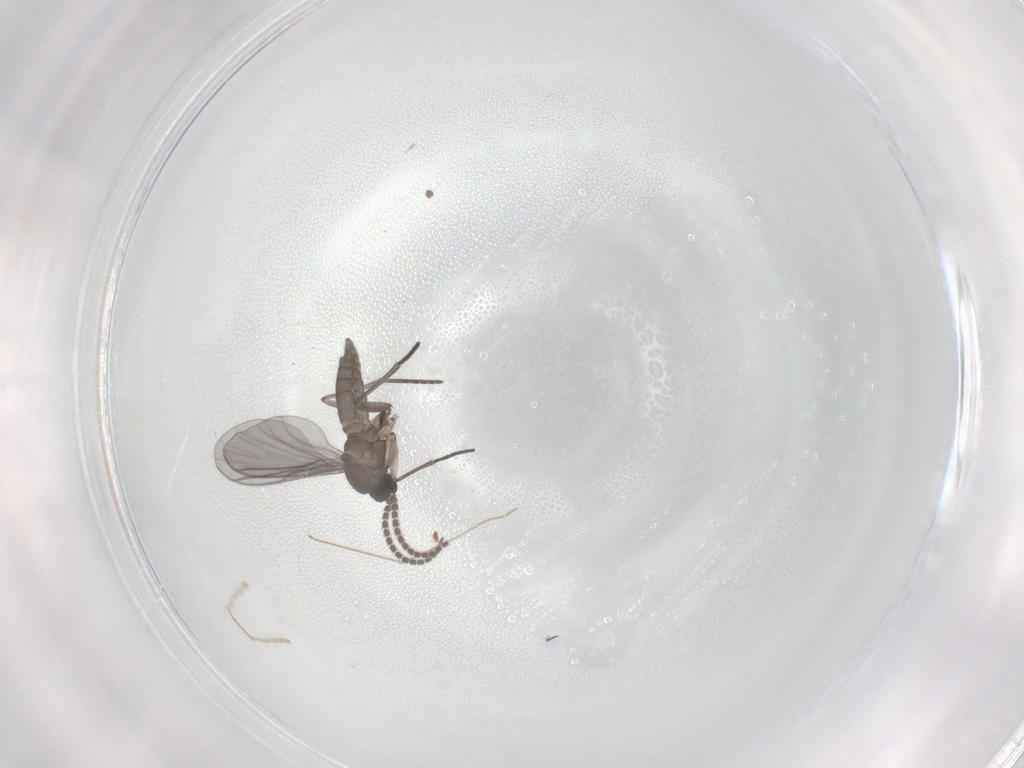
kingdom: Animalia
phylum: Arthropoda
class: Insecta
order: Diptera
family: Sciaridae
